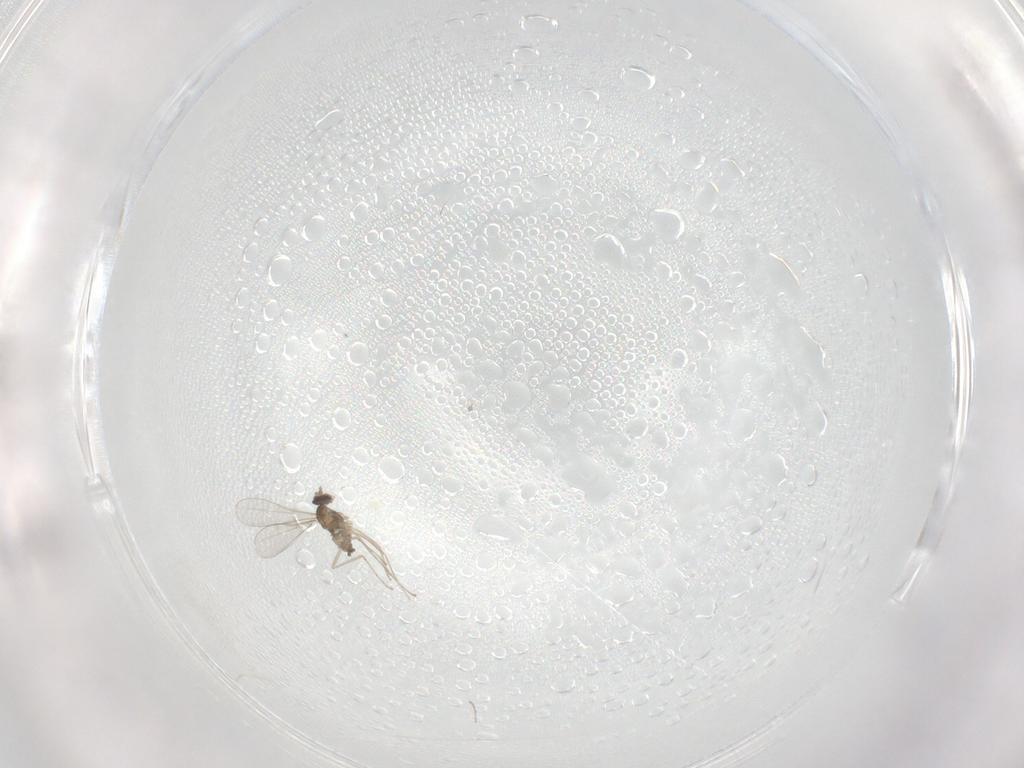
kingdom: Animalia
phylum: Arthropoda
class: Insecta
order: Diptera
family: Cecidomyiidae
